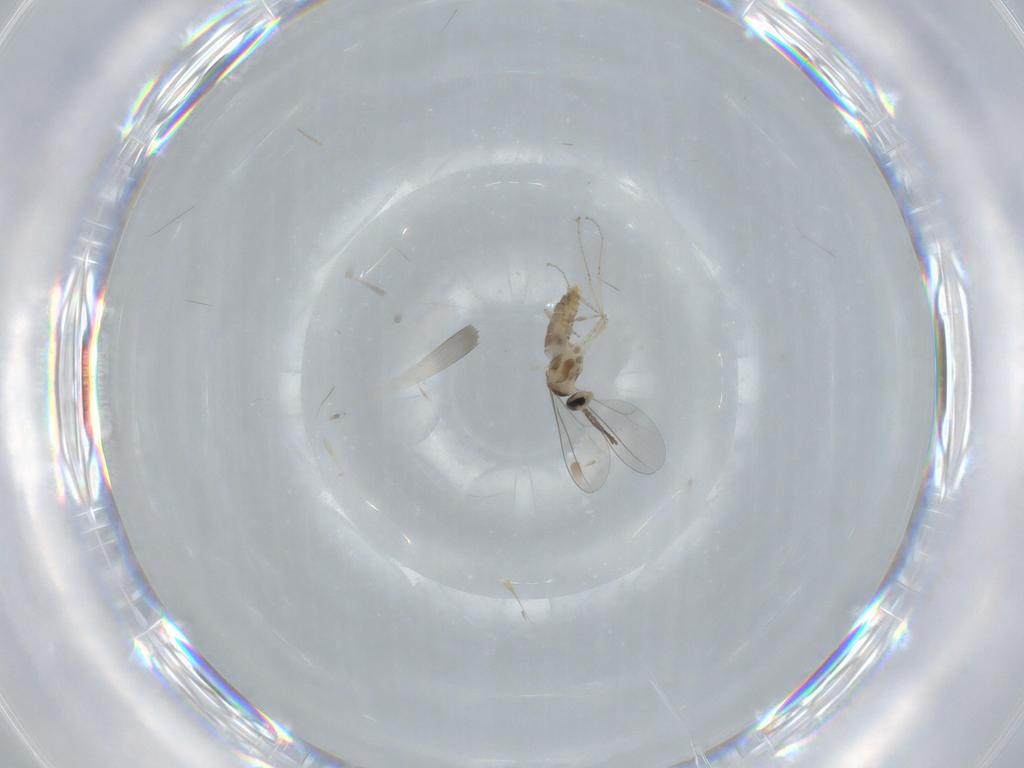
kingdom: Animalia
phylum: Arthropoda
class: Insecta
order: Diptera
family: Cecidomyiidae
